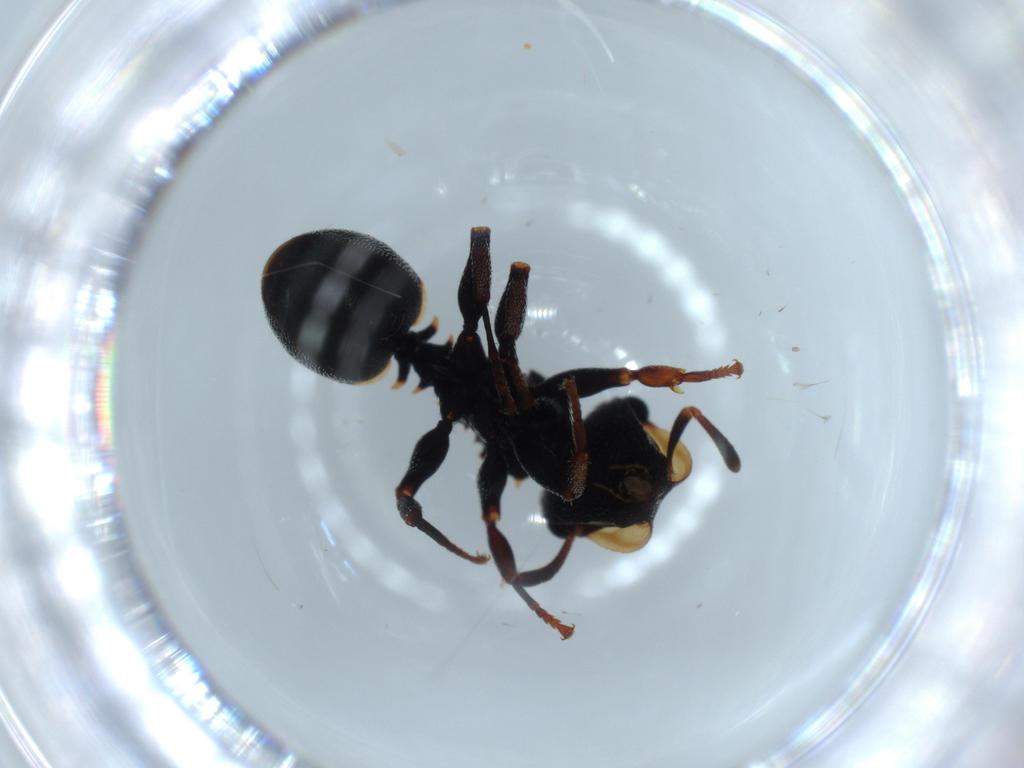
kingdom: Animalia
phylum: Arthropoda
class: Insecta
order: Hymenoptera
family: Formicidae
